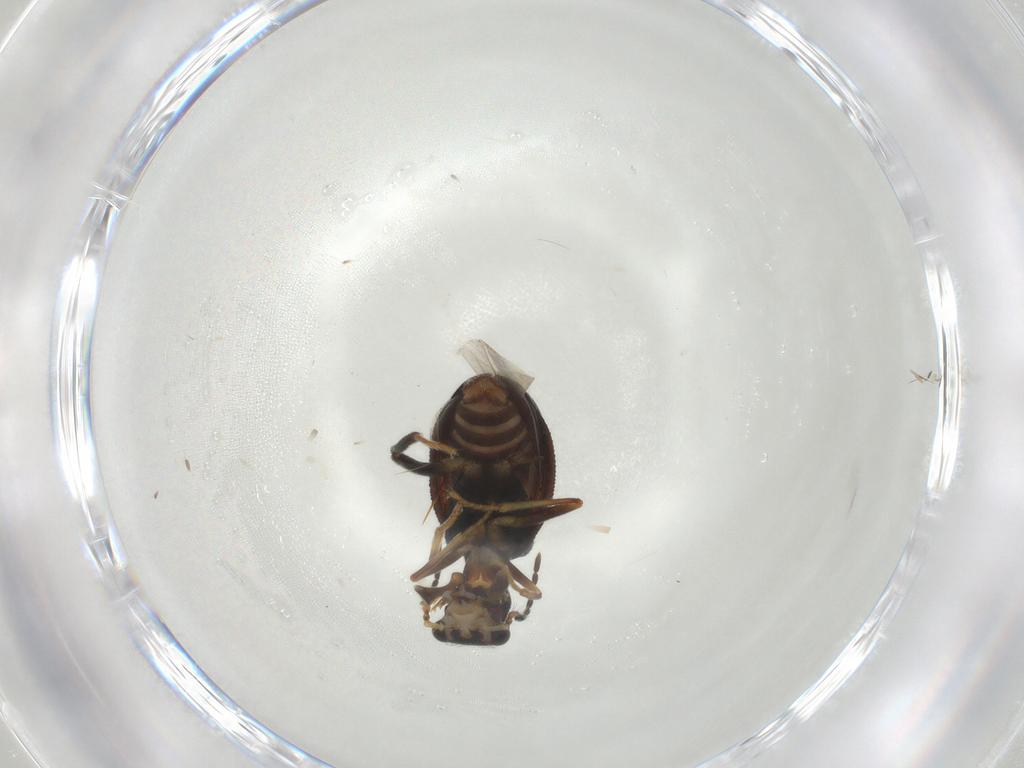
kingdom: Animalia
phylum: Arthropoda
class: Insecta
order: Coleoptera
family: Melyridae
